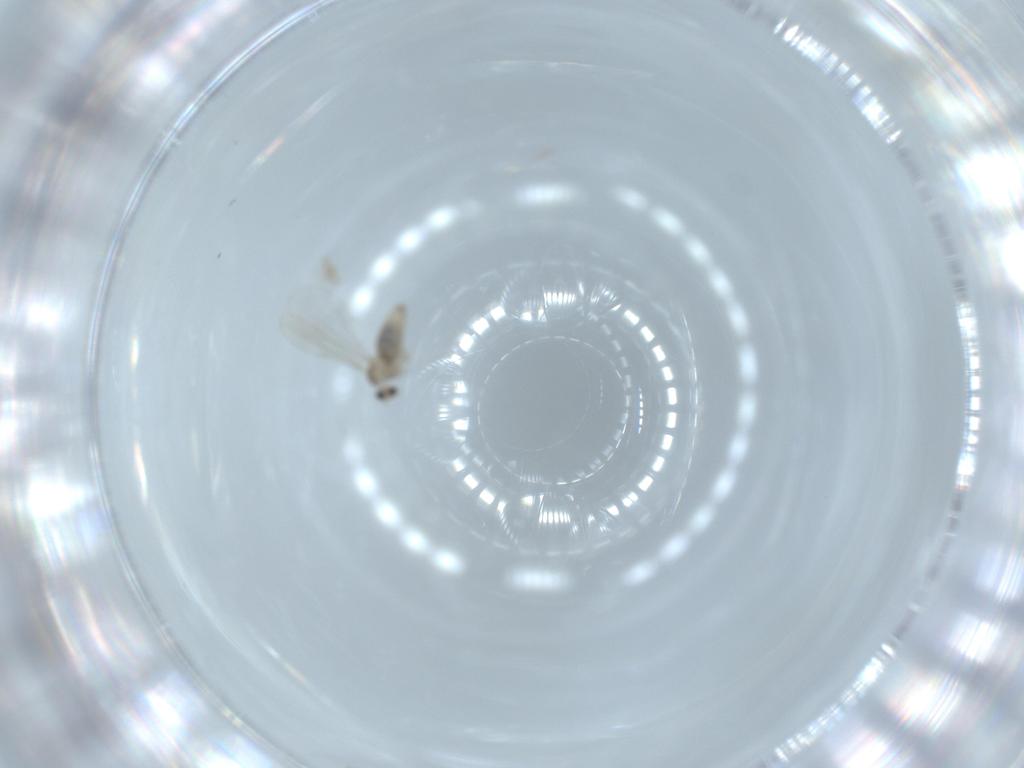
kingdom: Animalia
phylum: Arthropoda
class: Insecta
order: Diptera
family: Cecidomyiidae
